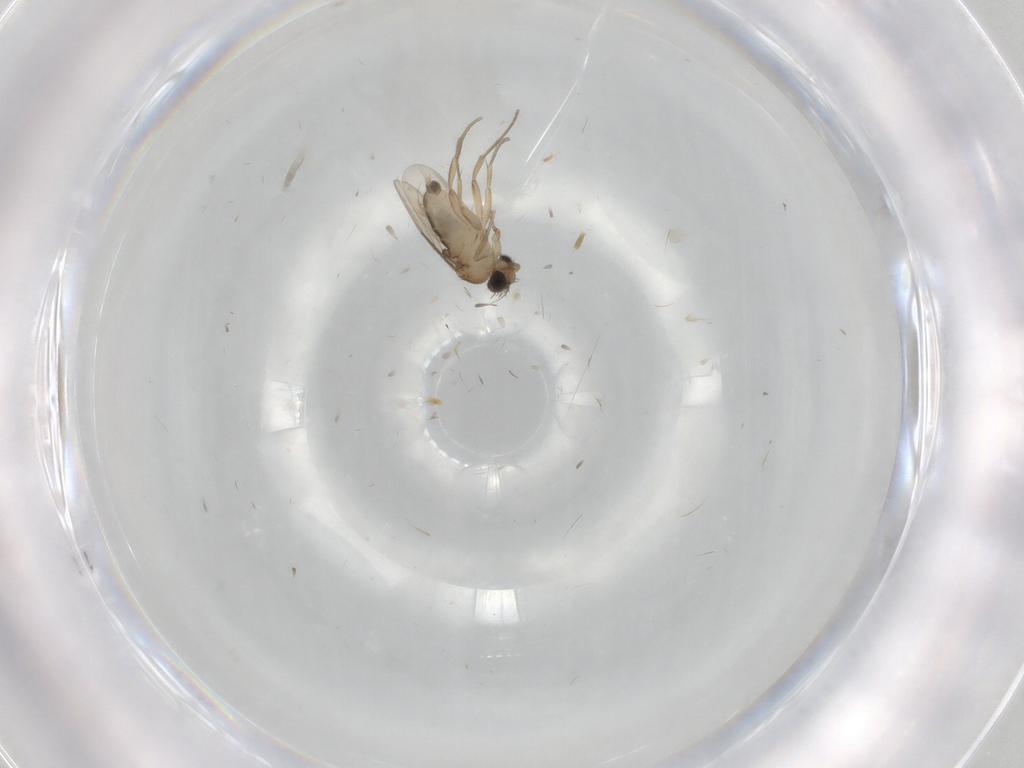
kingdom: Animalia
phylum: Arthropoda
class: Insecta
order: Diptera
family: Phoridae
